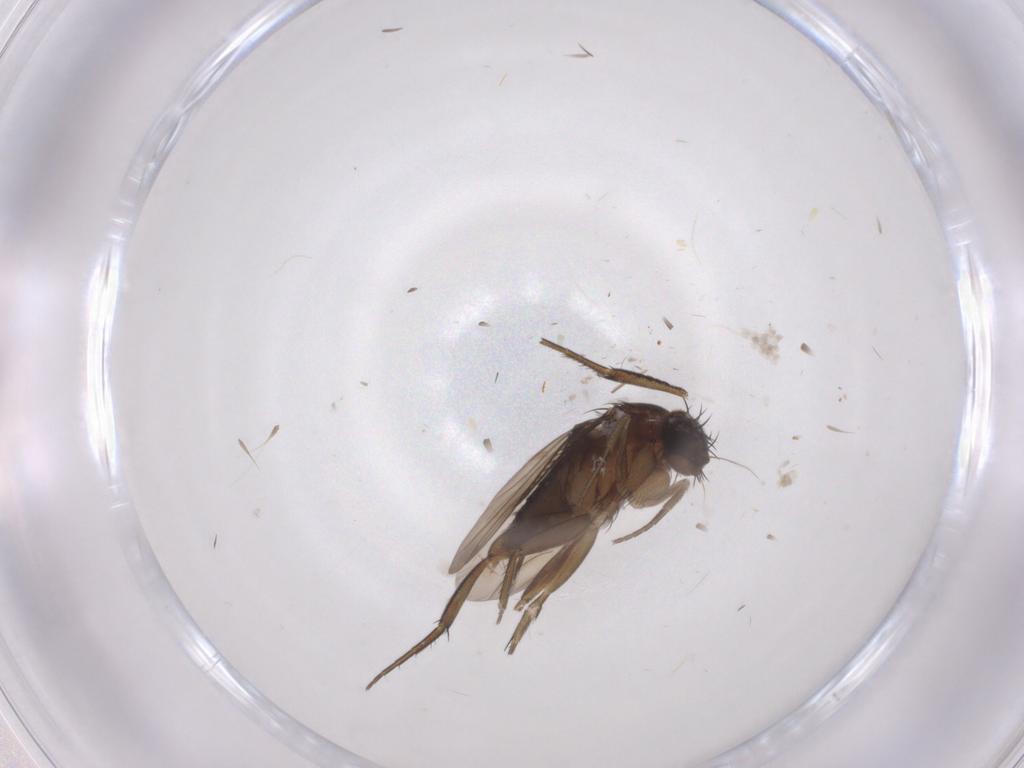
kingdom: Animalia
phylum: Arthropoda
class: Insecta
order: Diptera
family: Phoridae
